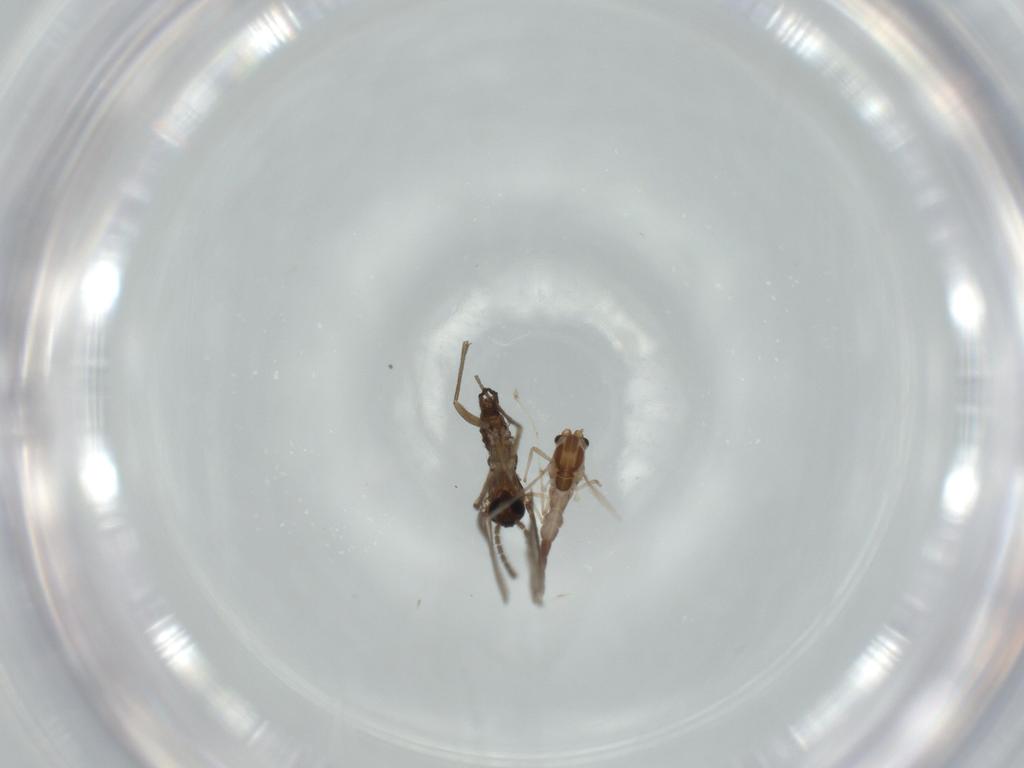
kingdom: Animalia
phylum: Arthropoda
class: Insecta
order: Diptera
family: Chironomidae
